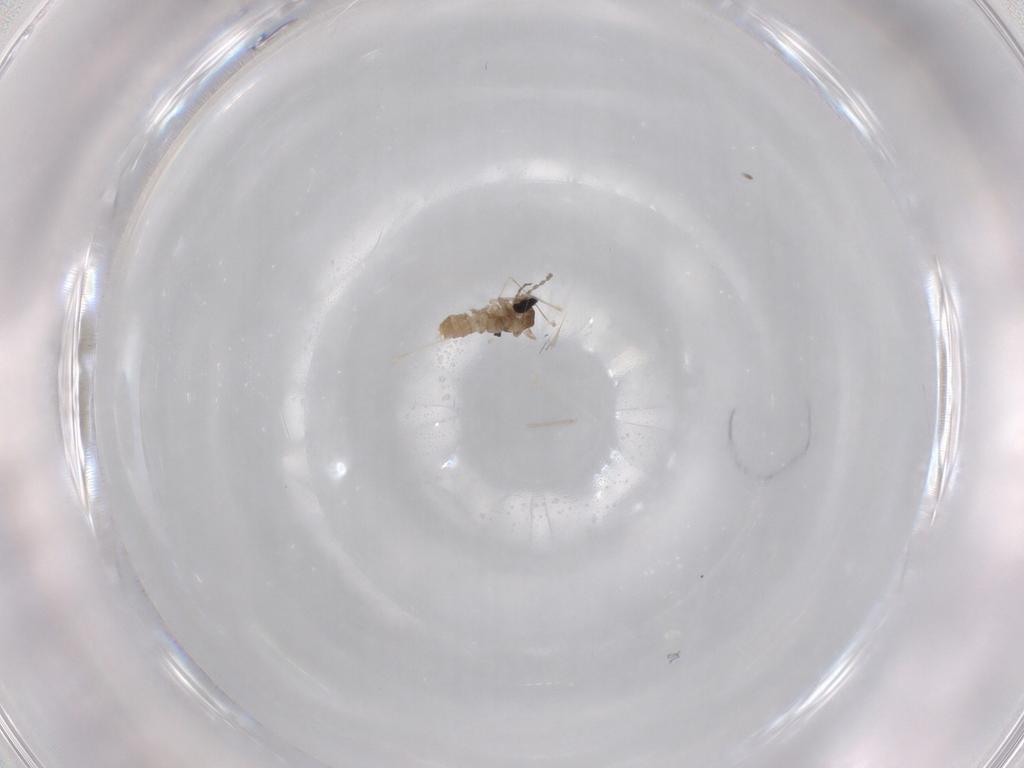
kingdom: Animalia
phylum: Arthropoda
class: Insecta
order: Diptera
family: Cecidomyiidae
